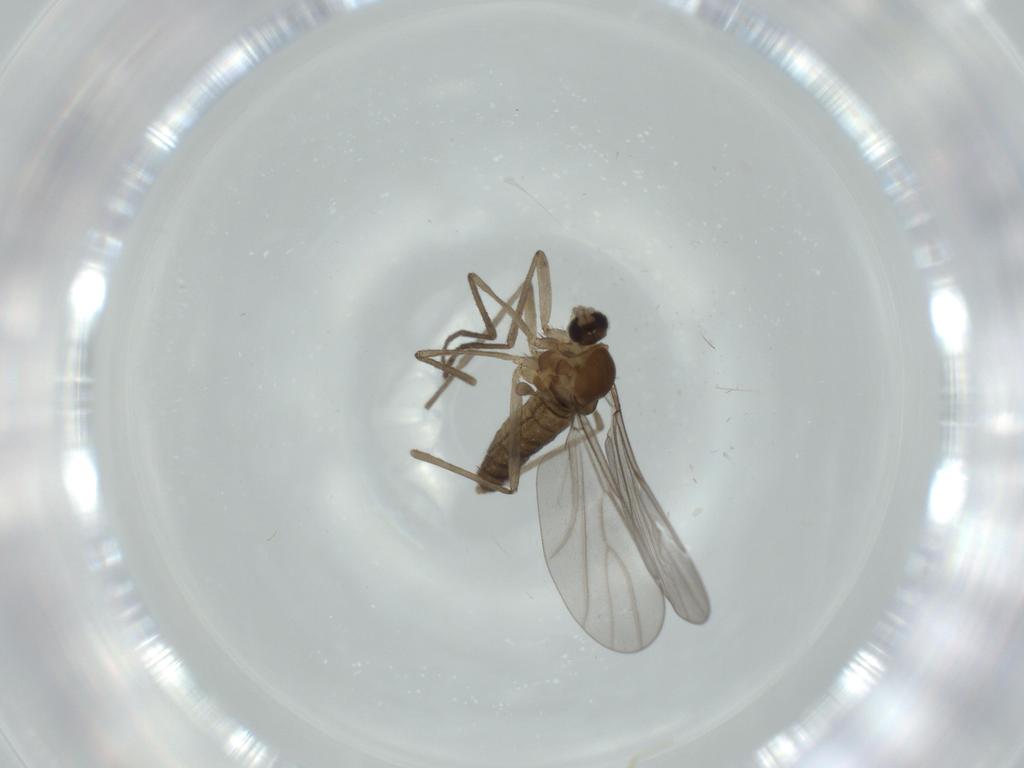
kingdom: Animalia
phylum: Arthropoda
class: Insecta
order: Diptera
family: Cecidomyiidae
